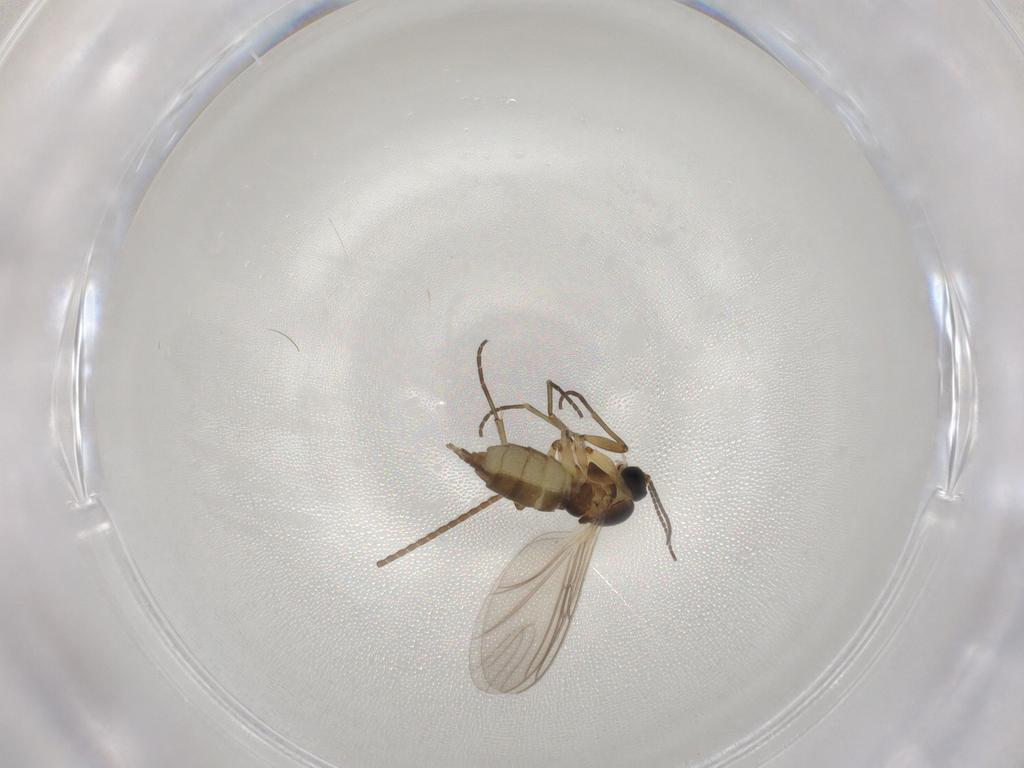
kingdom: Animalia
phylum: Arthropoda
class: Insecta
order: Diptera
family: Sciaridae
